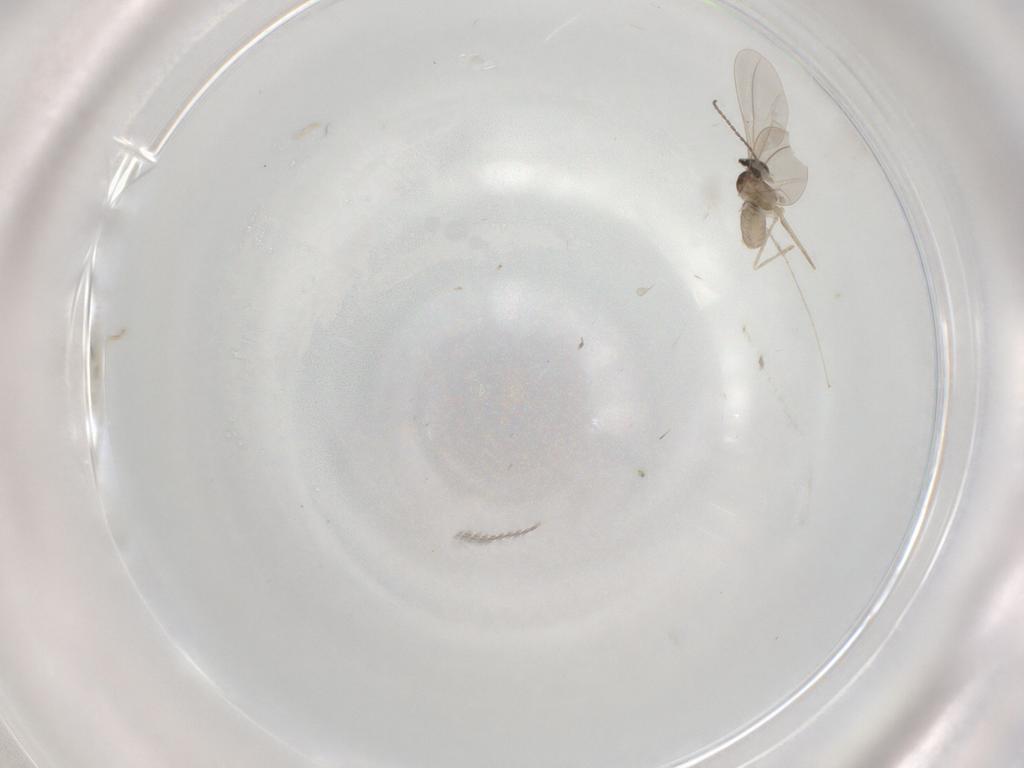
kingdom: Animalia
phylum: Arthropoda
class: Insecta
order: Diptera
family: Cecidomyiidae
